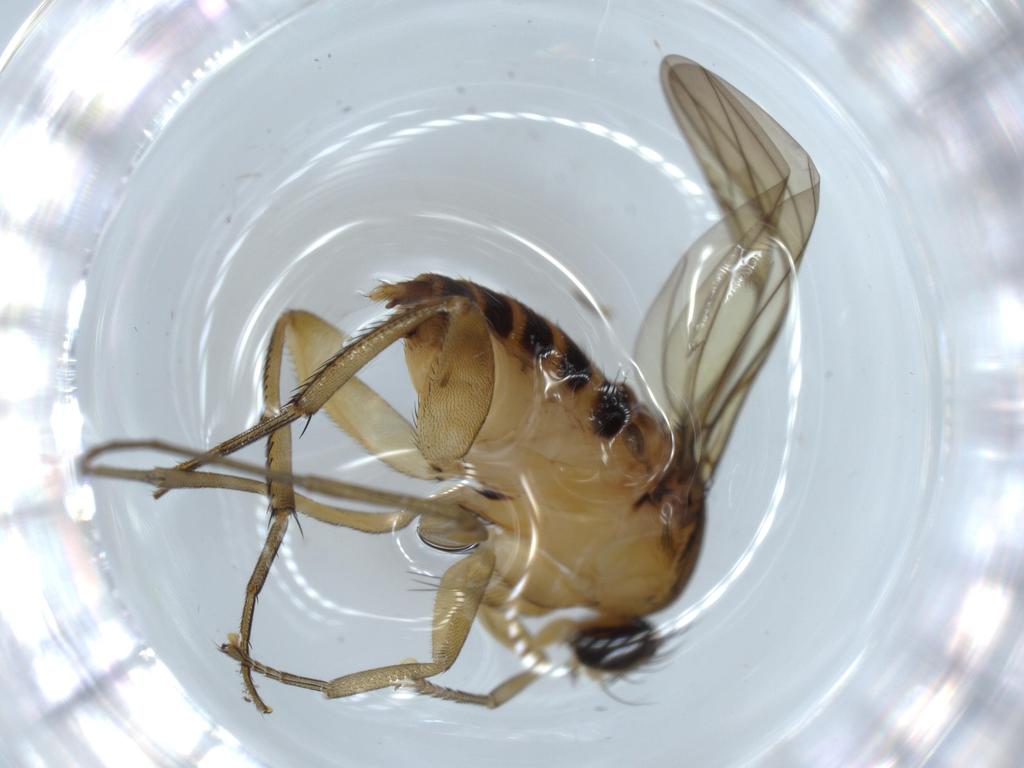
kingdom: Animalia
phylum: Arthropoda
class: Insecta
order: Diptera
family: Phoridae
